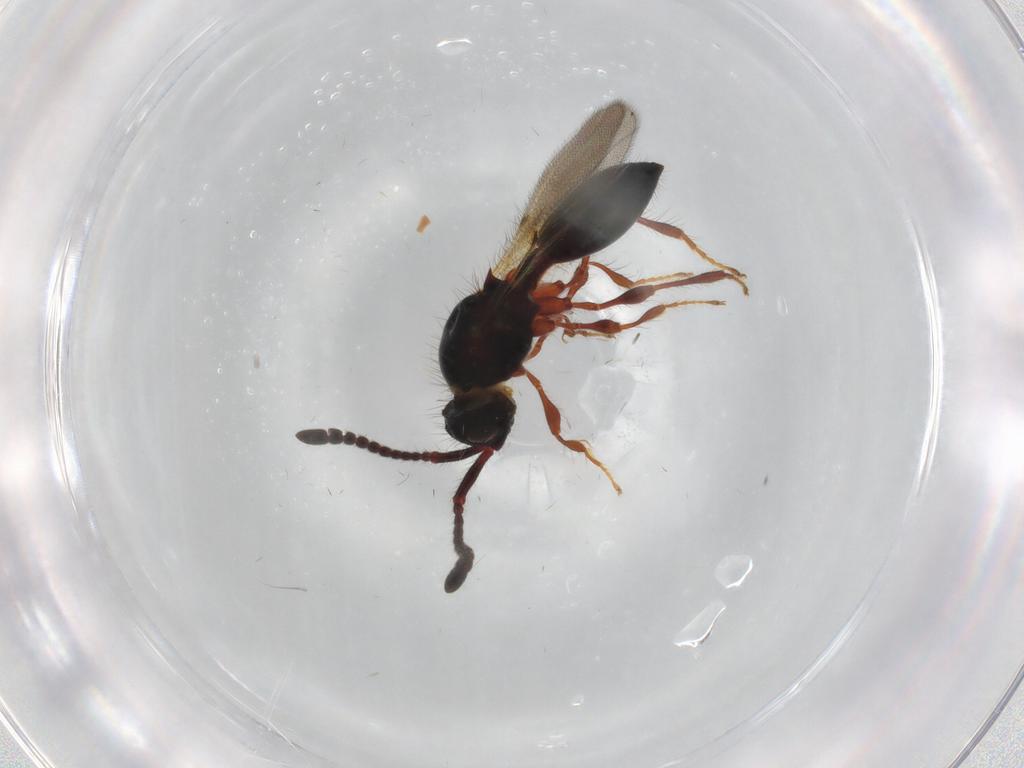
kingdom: Animalia
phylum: Arthropoda
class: Insecta
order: Hymenoptera
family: Diapriidae
